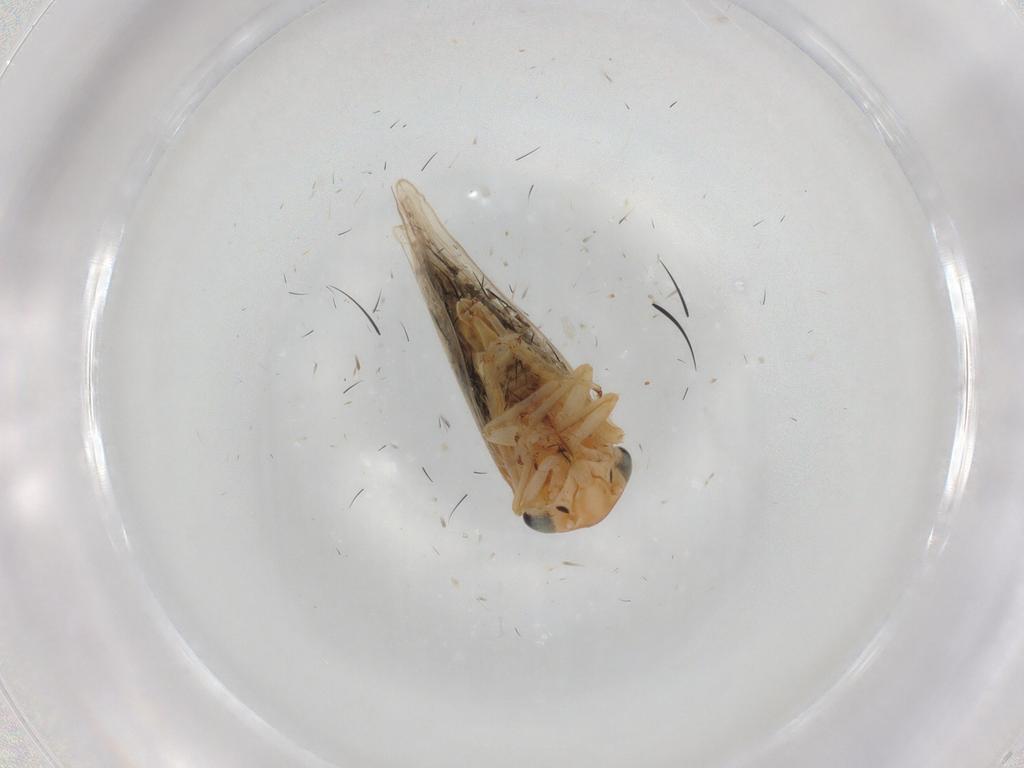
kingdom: Animalia
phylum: Arthropoda
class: Insecta
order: Hemiptera
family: Cicadellidae
